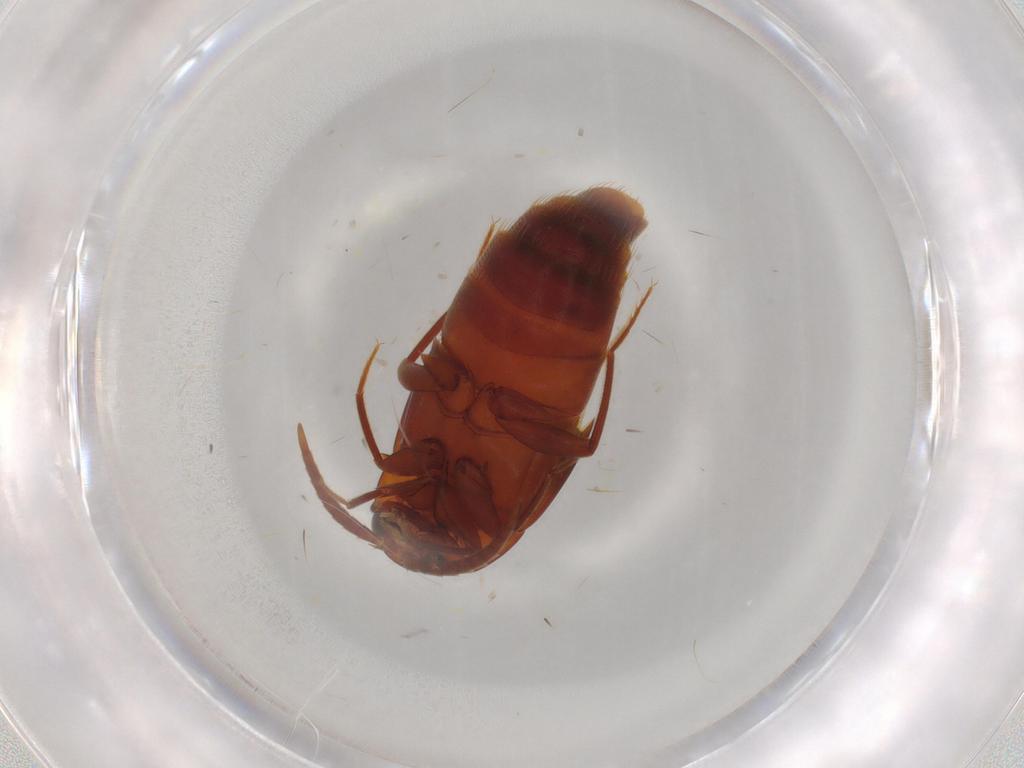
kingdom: Animalia
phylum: Arthropoda
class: Insecta
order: Coleoptera
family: Staphylinidae
